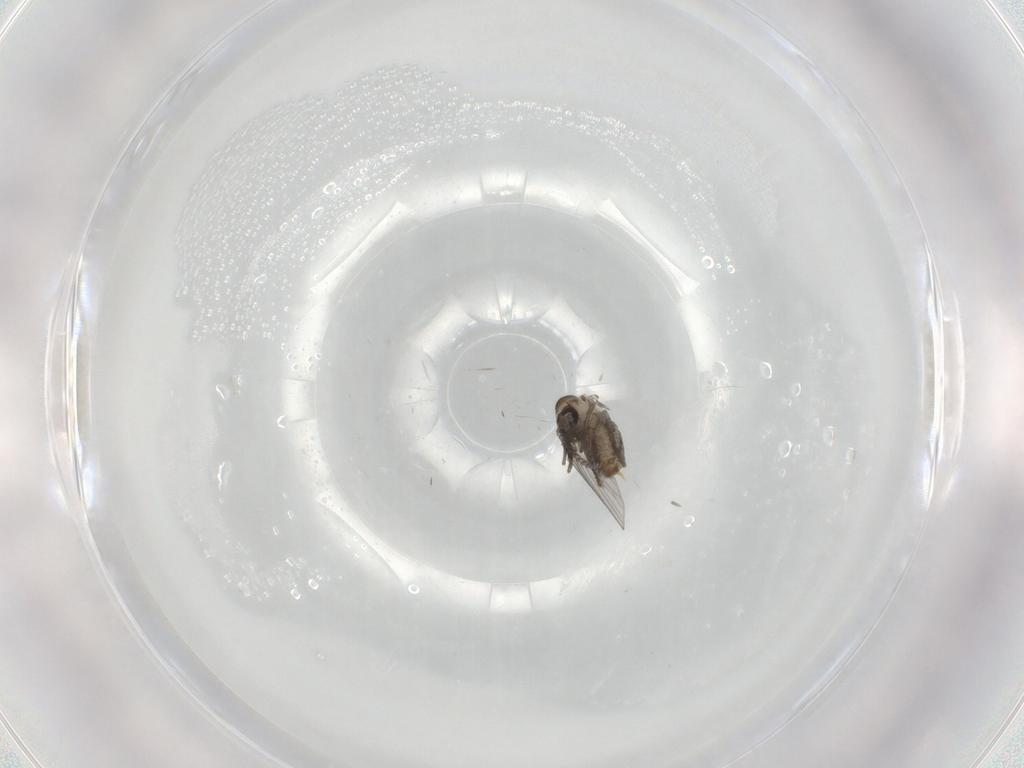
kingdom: Animalia
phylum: Arthropoda
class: Insecta
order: Diptera
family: Psychodidae
